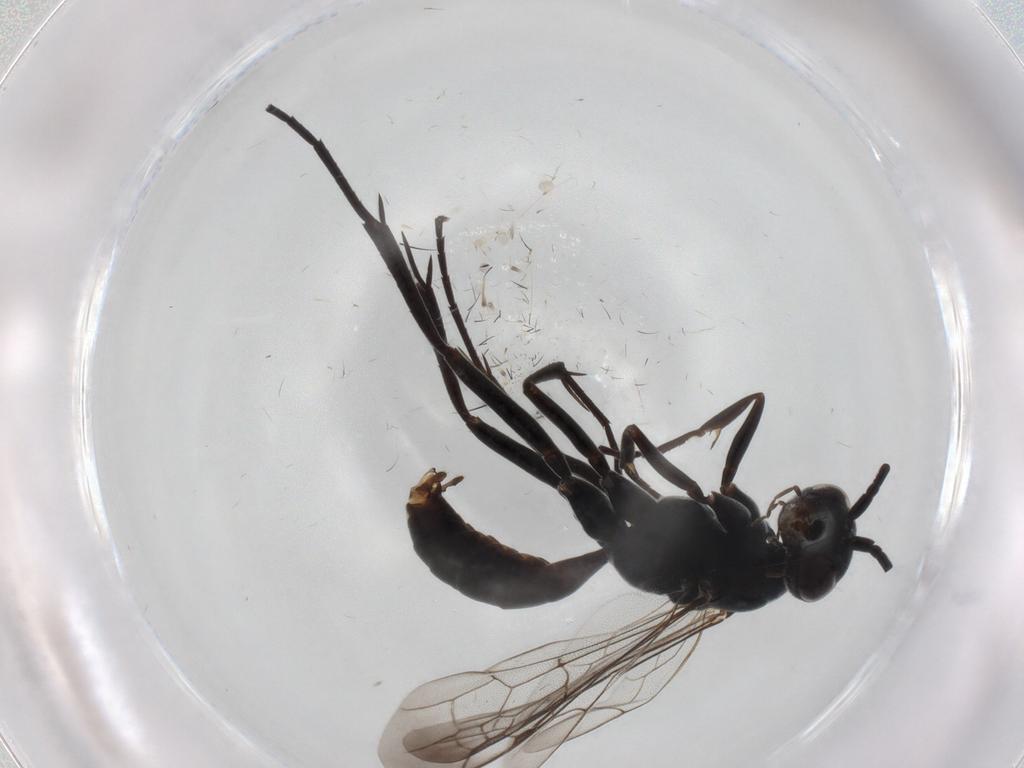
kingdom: Animalia
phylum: Arthropoda
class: Insecta
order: Hymenoptera
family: Pompilidae
